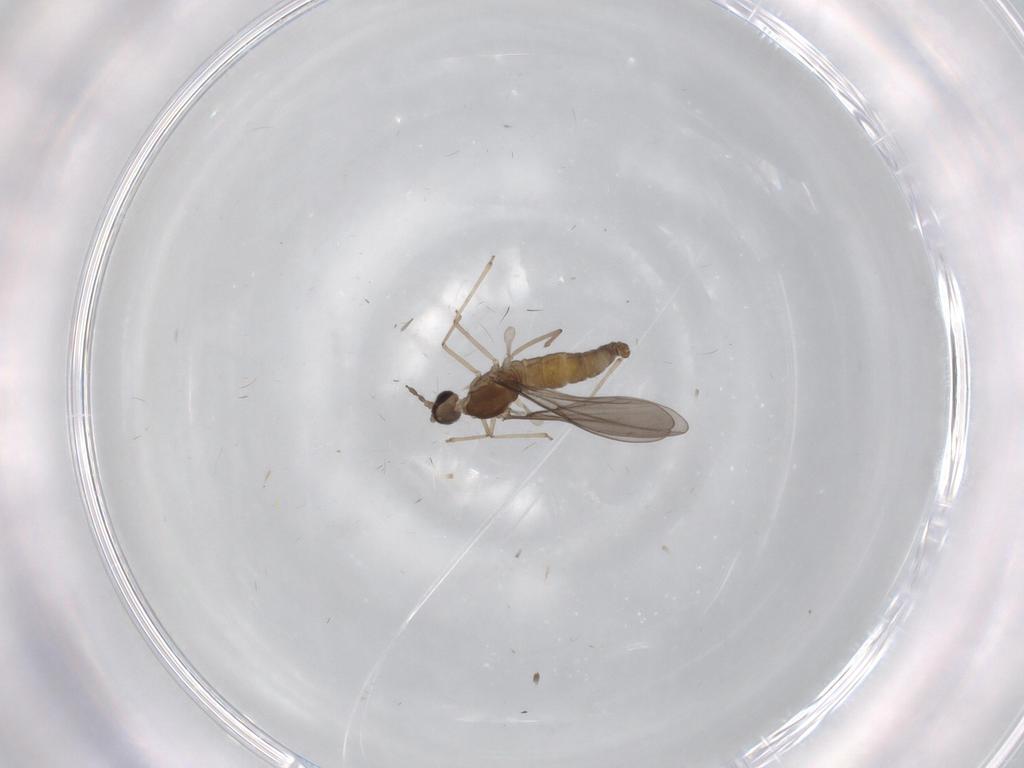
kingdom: Animalia
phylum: Arthropoda
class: Insecta
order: Diptera
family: Cecidomyiidae
